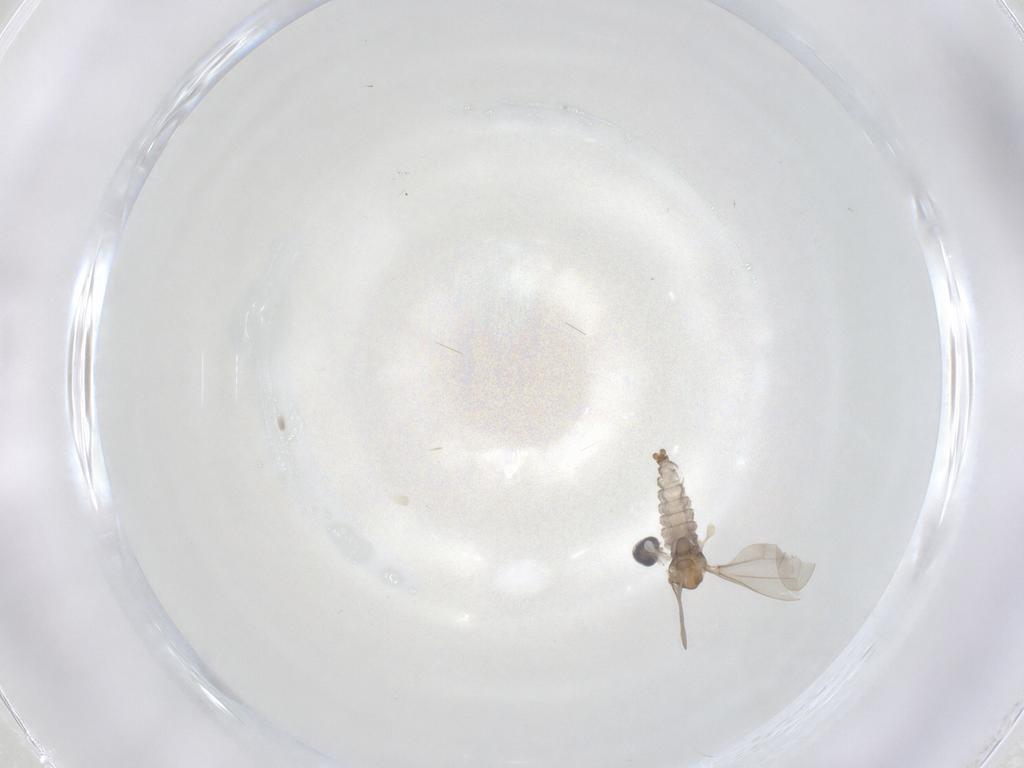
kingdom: Animalia
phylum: Arthropoda
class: Insecta
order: Diptera
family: Cecidomyiidae
